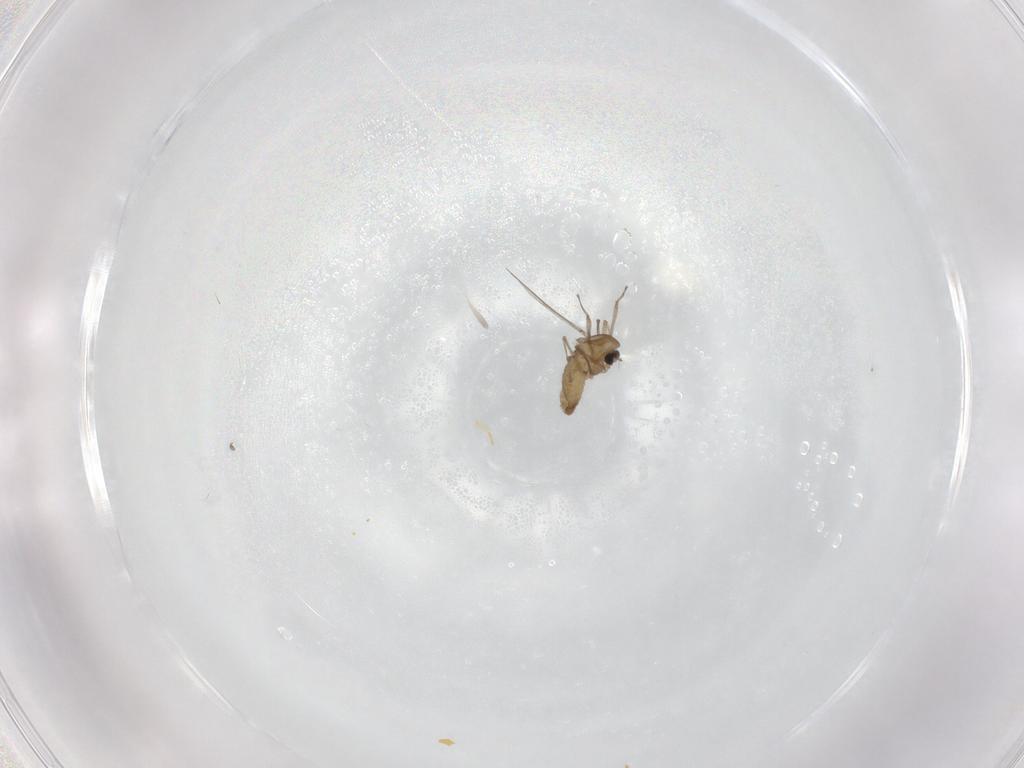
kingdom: Animalia
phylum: Arthropoda
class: Insecta
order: Diptera
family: Chironomidae
